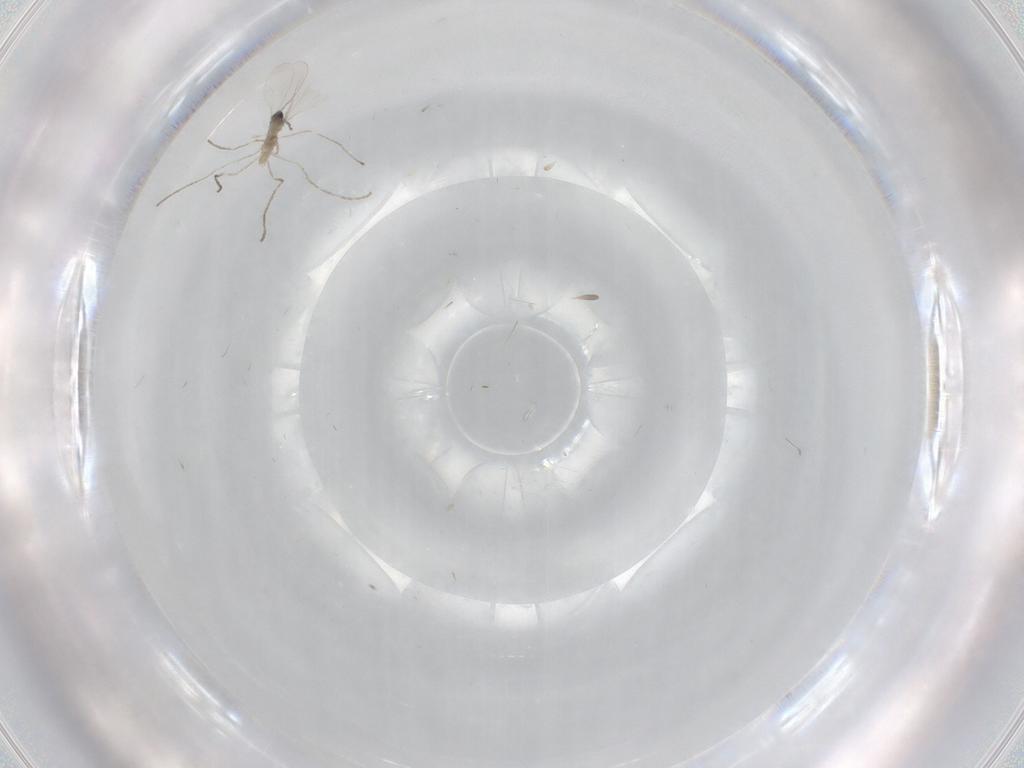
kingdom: Animalia
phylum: Arthropoda
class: Insecta
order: Diptera
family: Cecidomyiidae
